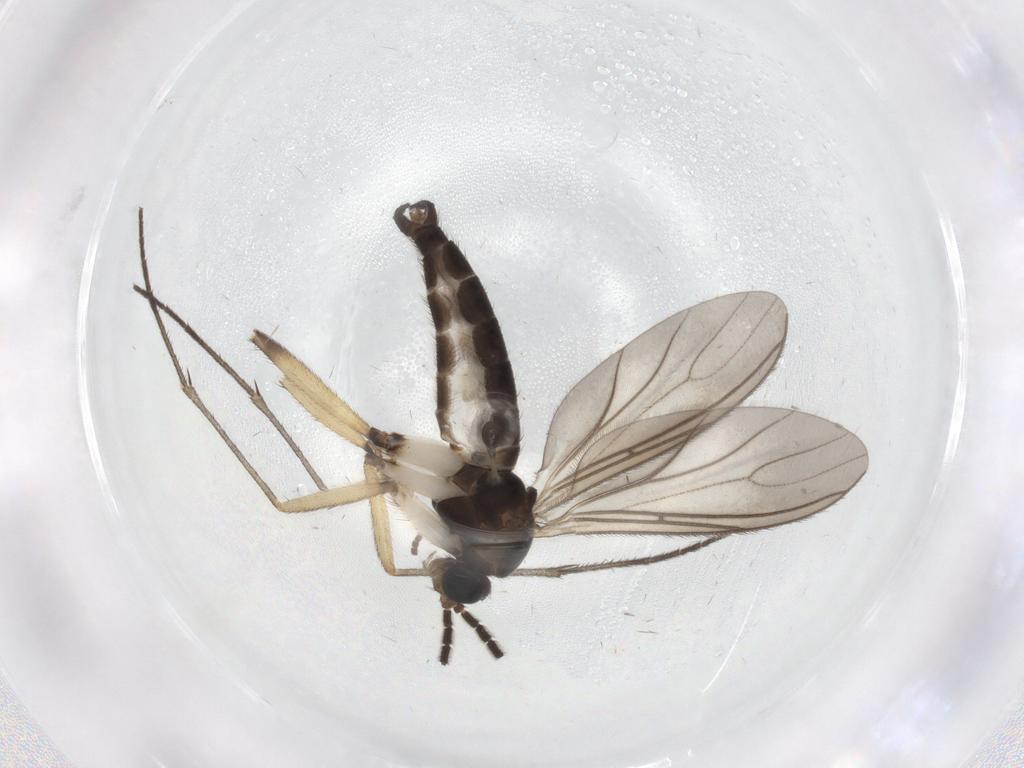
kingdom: Animalia
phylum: Arthropoda
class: Insecta
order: Diptera
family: Sciaridae
